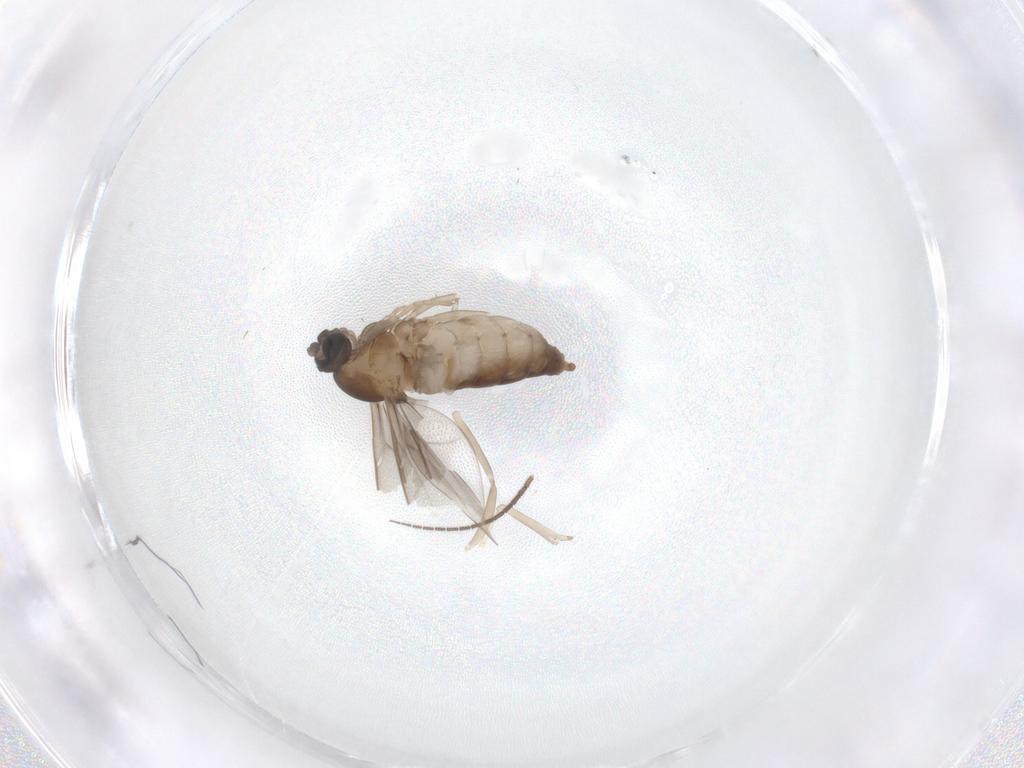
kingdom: Animalia
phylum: Arthropoda
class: Insecta
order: Diptera
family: Cecidomyiidae
